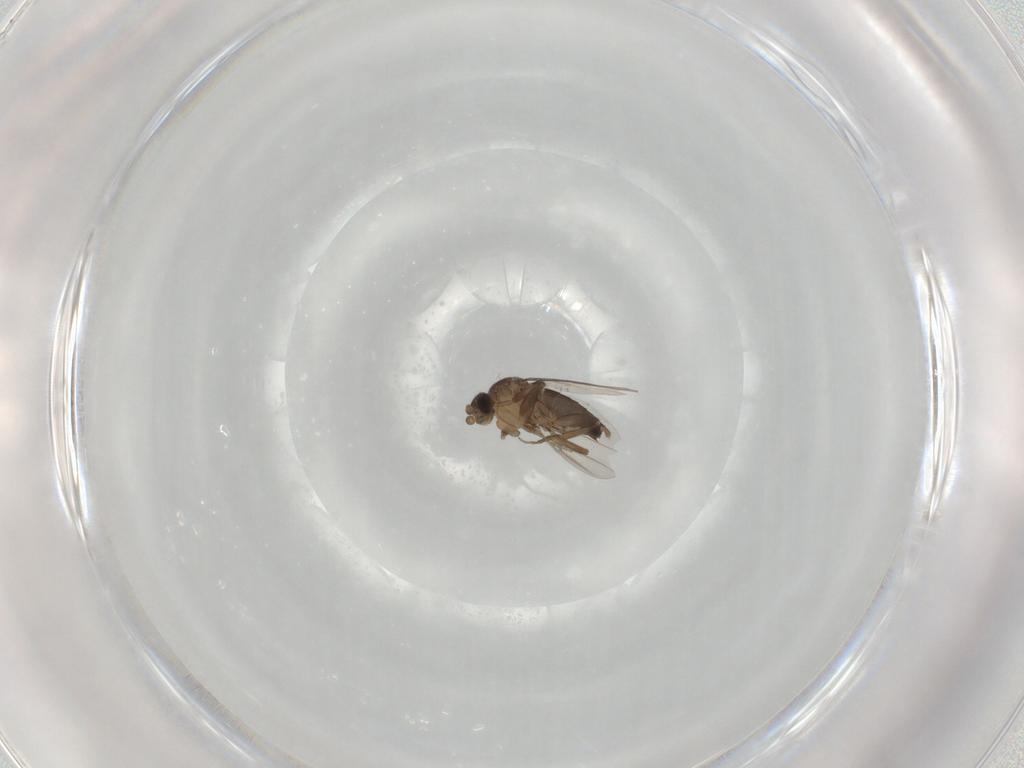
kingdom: Animalia
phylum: Arthropoda
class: Insecta
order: Diptera
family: Phoridae
